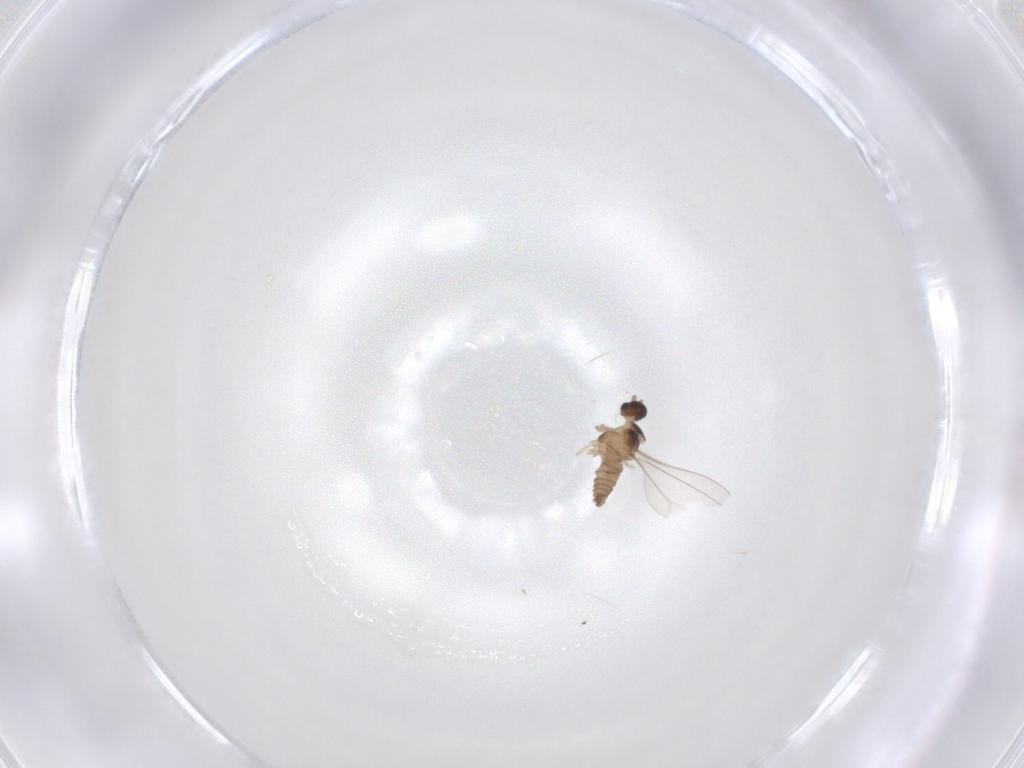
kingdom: Animalia
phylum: Arthropoda
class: Insecta
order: Diptera
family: Cecidomyiidae
